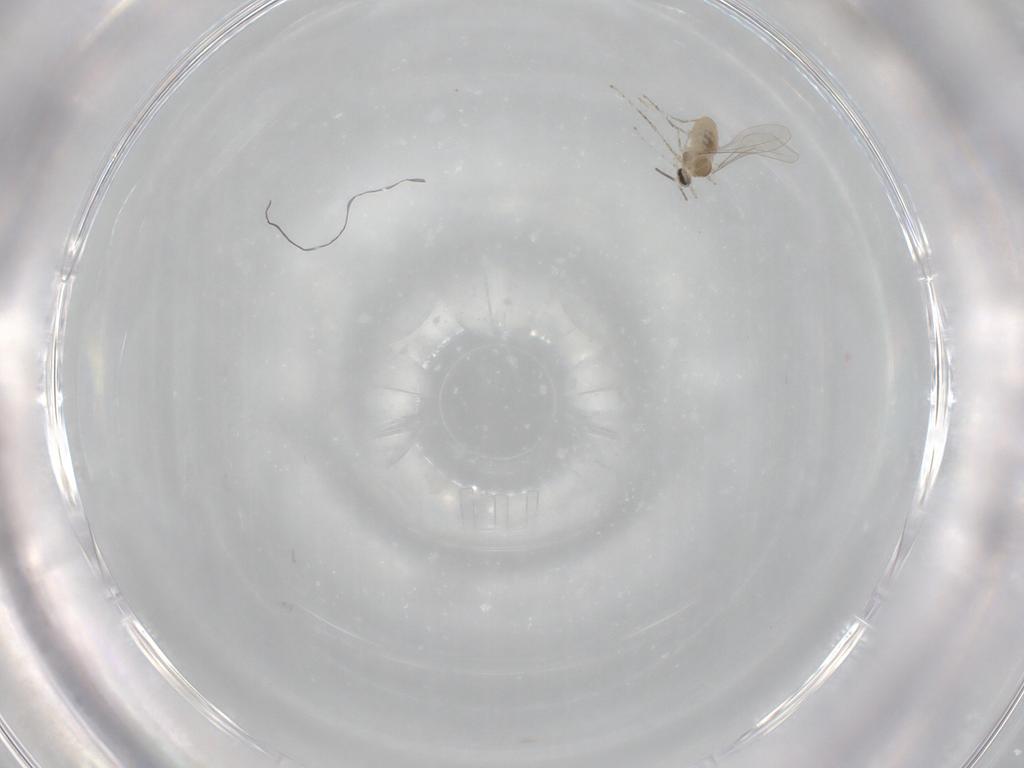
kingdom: Animalia
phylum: Arthropoda
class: Insecta
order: Diptera
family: Cecidomyiidae
